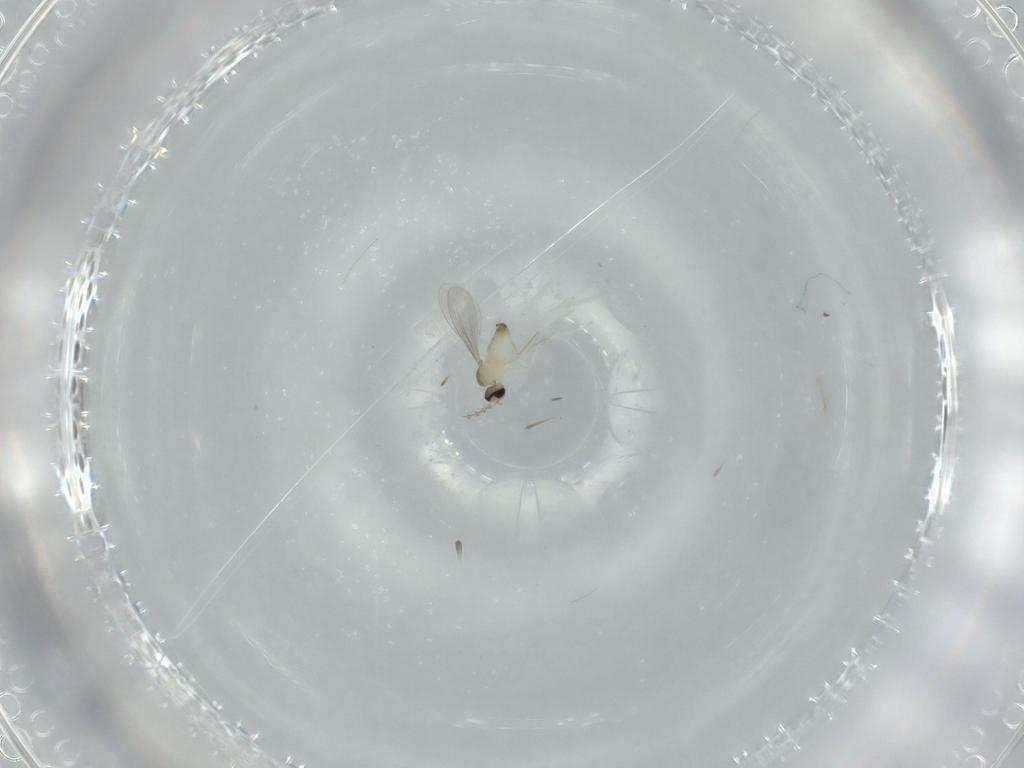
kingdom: Animalia
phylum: Arthropoda
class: Insecta
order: Diptera
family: Cecidomyiidae
